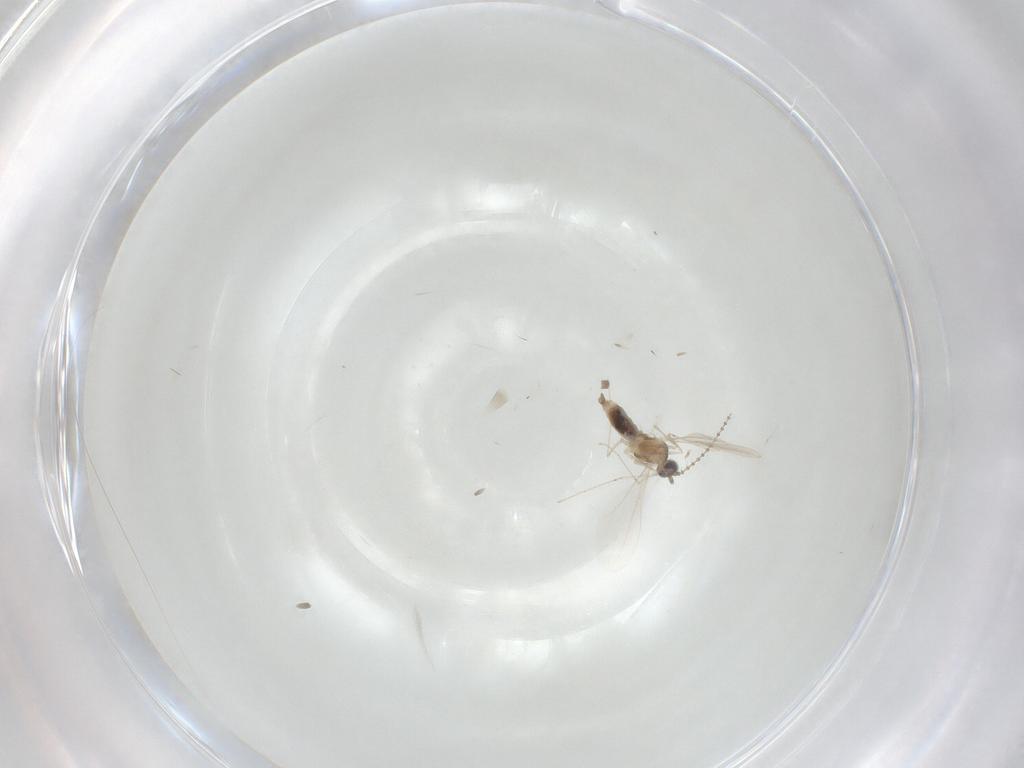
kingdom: Animalia
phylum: Arthropoda
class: Insecta
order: Diptera
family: Cecidomyiidae
